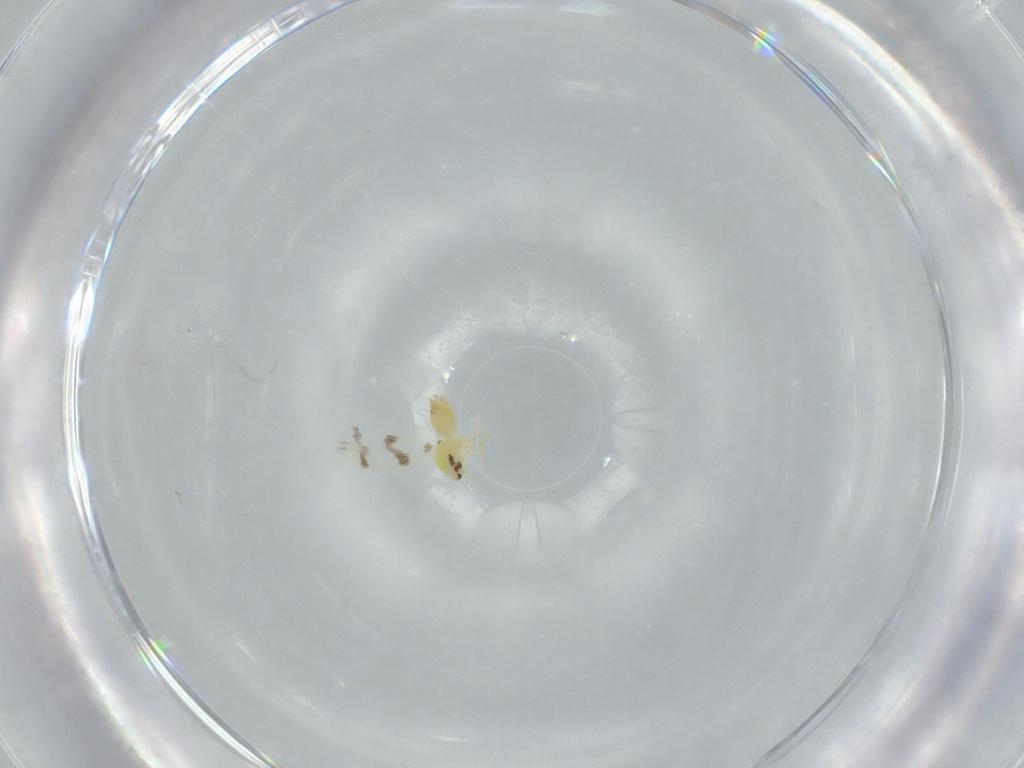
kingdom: Animalia
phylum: Arthropoda
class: Insecta
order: Hemiptera
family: Aleyrodidae
